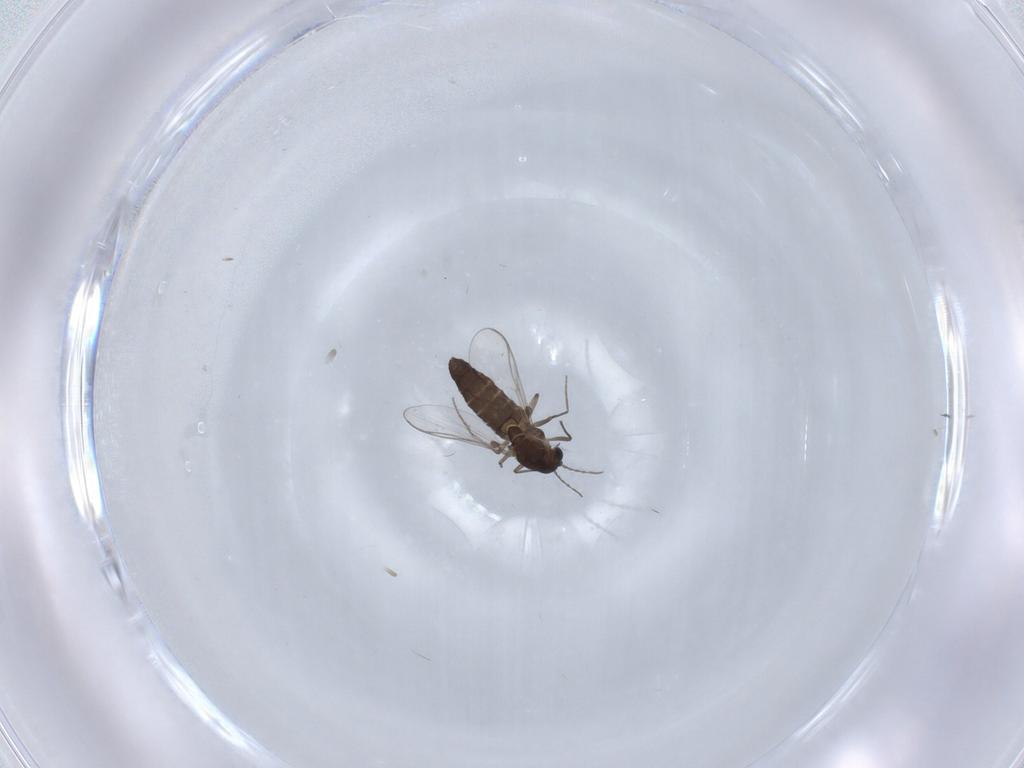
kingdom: Animalia
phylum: Arthropoda
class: Insecta
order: Diptera
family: Chironomidae
